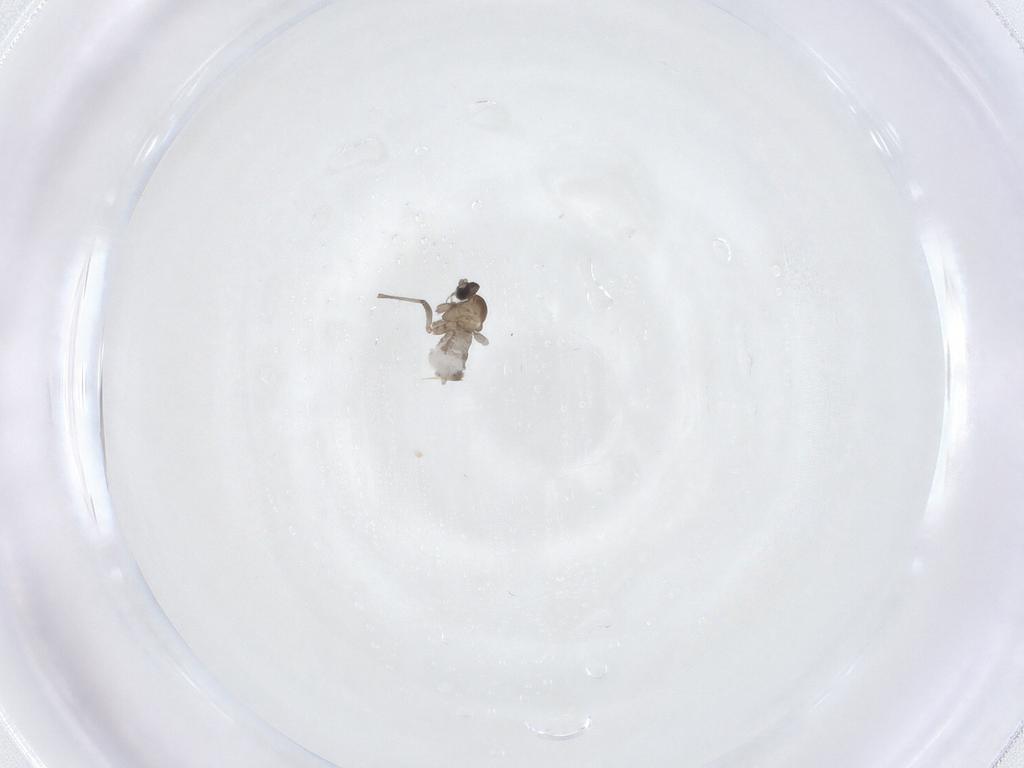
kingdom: Animalia
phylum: Arthropoda
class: Insecta
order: Diptera
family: Cecidomyiidae
